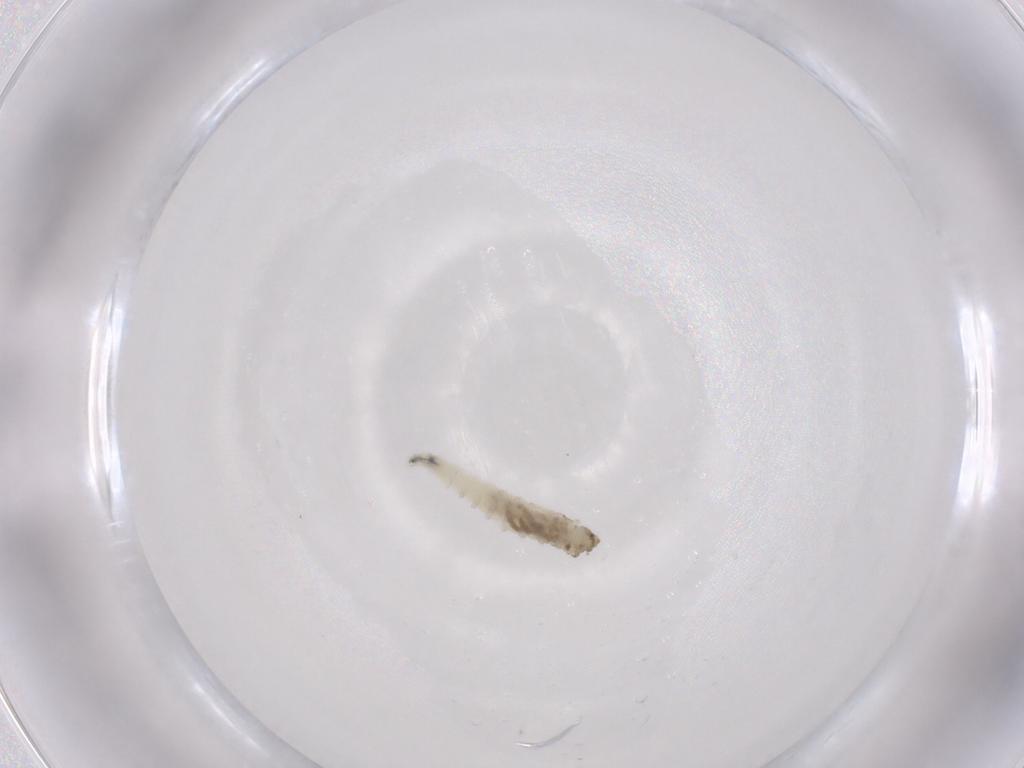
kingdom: Animalia
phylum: Arthropoda
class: Insecta
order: Diptera
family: Drosophilidae
